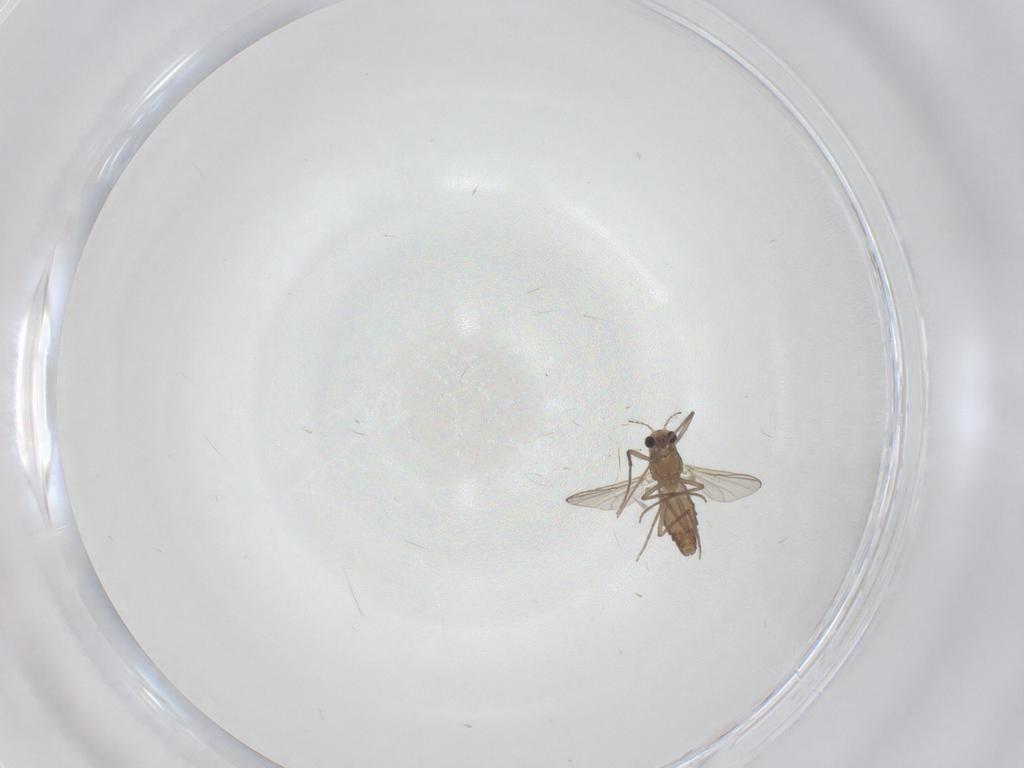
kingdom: Animalia
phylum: Arthropoda
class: Insecta
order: Diptera
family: Chironomidae
